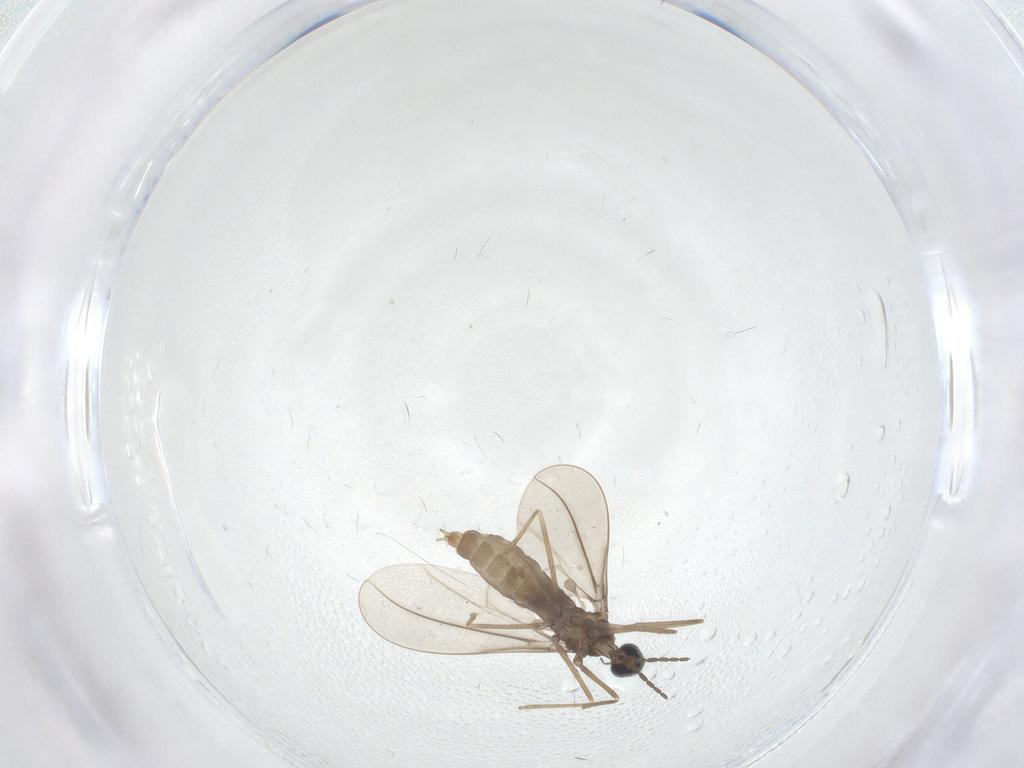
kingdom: Animalia
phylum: Arthropoda
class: Insecta
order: Diptera
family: Cecidomyiidae
